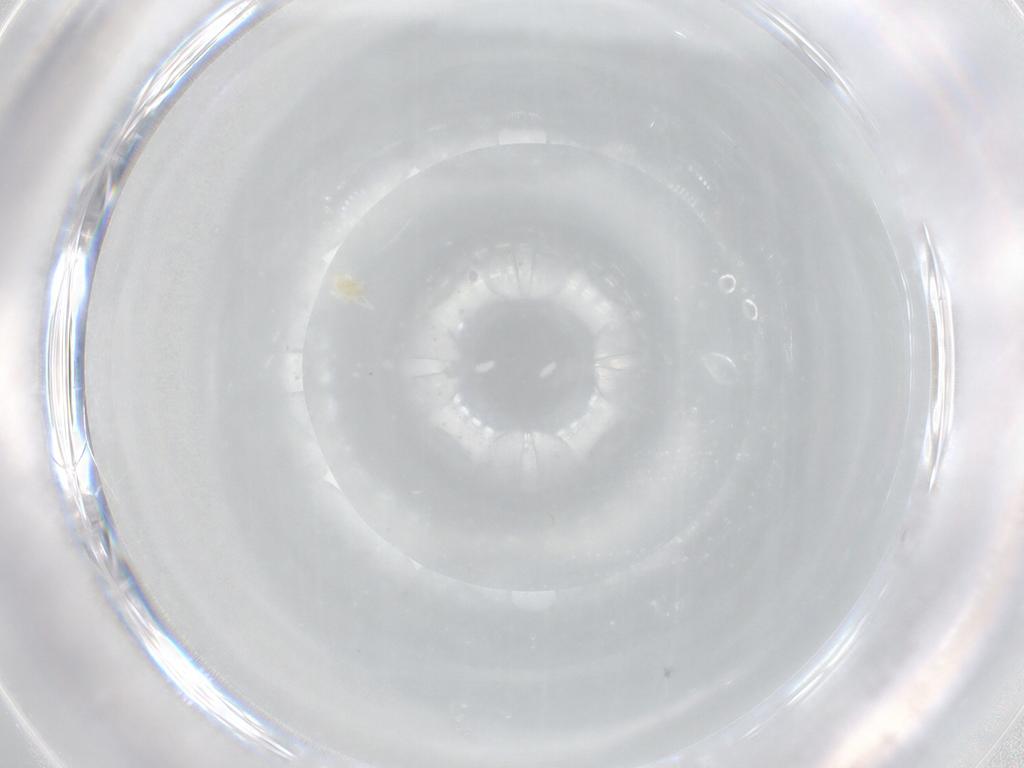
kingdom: Animalia
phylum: Arthropoda
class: Arachnida
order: Trombidiformes
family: Eupodidae
